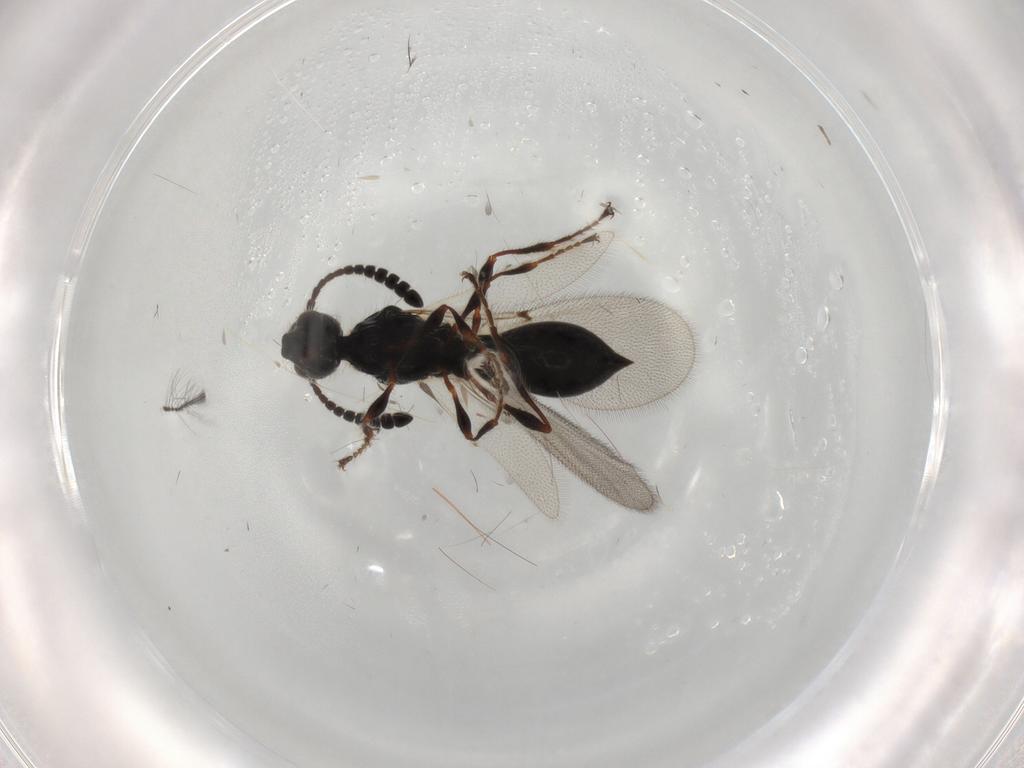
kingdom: Animalia
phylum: Arthropoda
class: Insecta
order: Hymenoptera
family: Diapriidae
